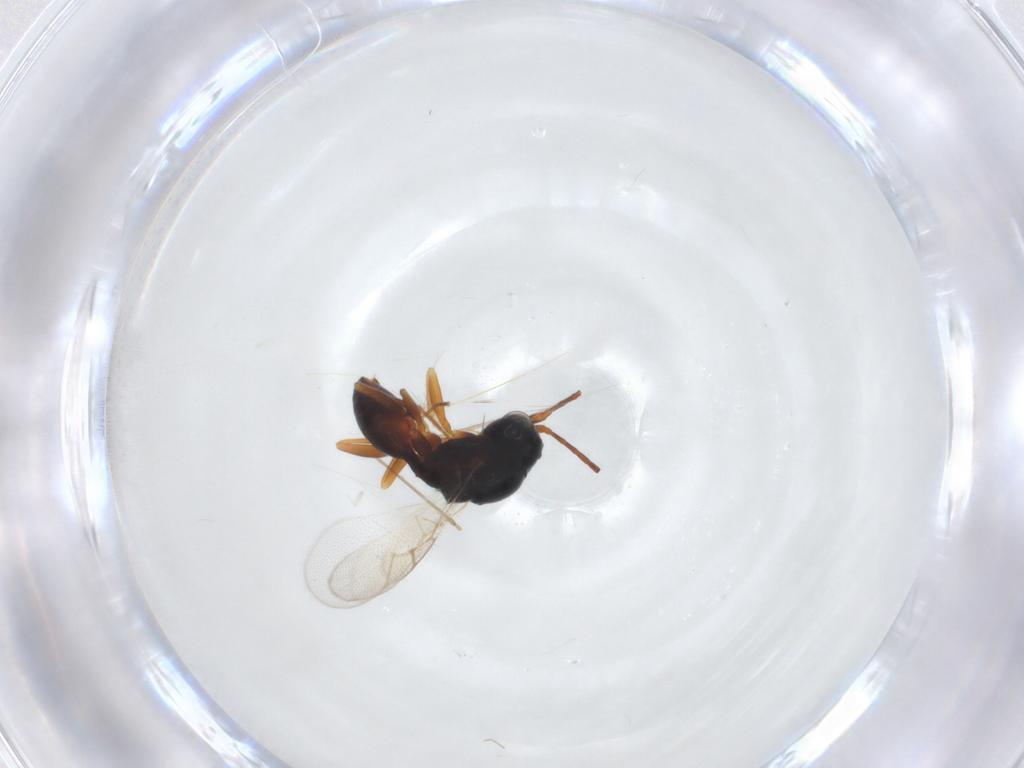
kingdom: Animalia
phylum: Arthropoda
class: Insecta
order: Hymenoptera
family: Figitidae
